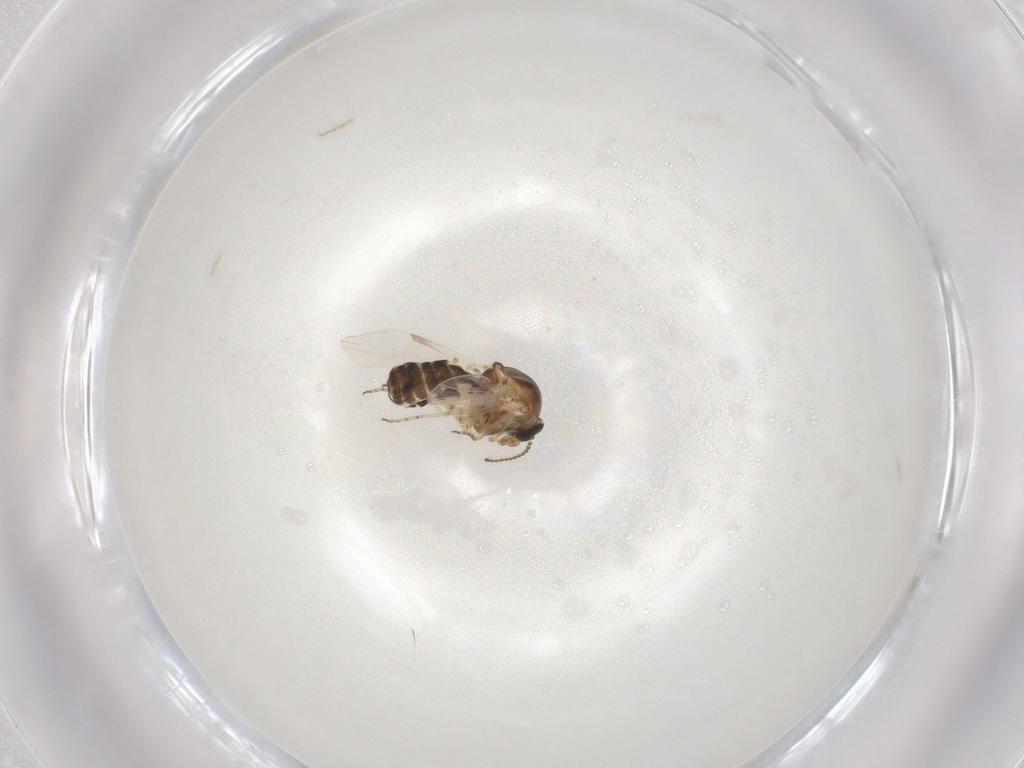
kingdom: Animalia
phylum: Arthropoda
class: Insecta
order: Diptera
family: Ceratopogonidae
